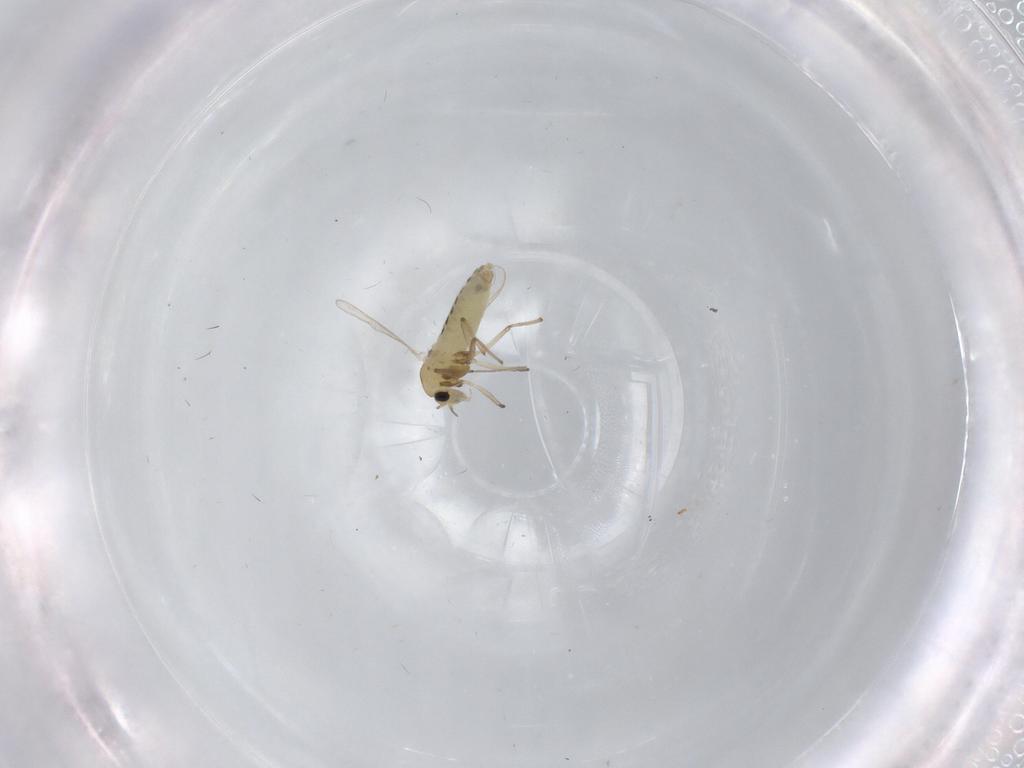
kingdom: Animalia
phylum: Arthropoda
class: Insecta
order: Diptera
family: Chironomidae
